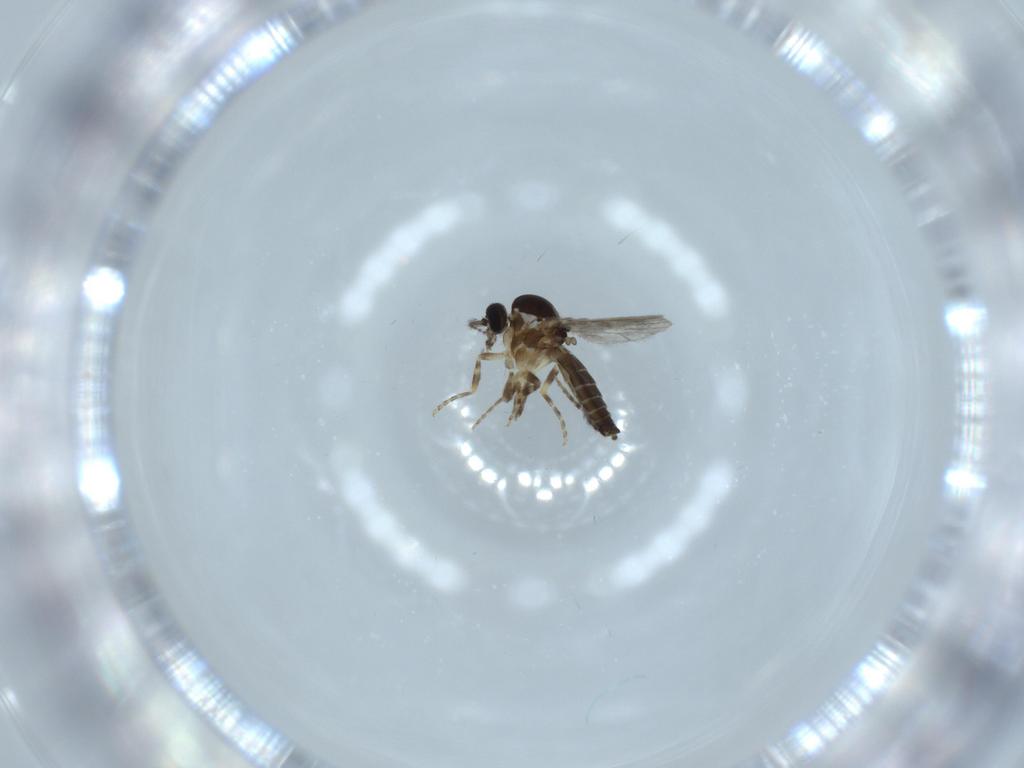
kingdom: Animalia
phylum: Arthropoda
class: Insecta
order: Diptera
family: Ceratopogonidae
